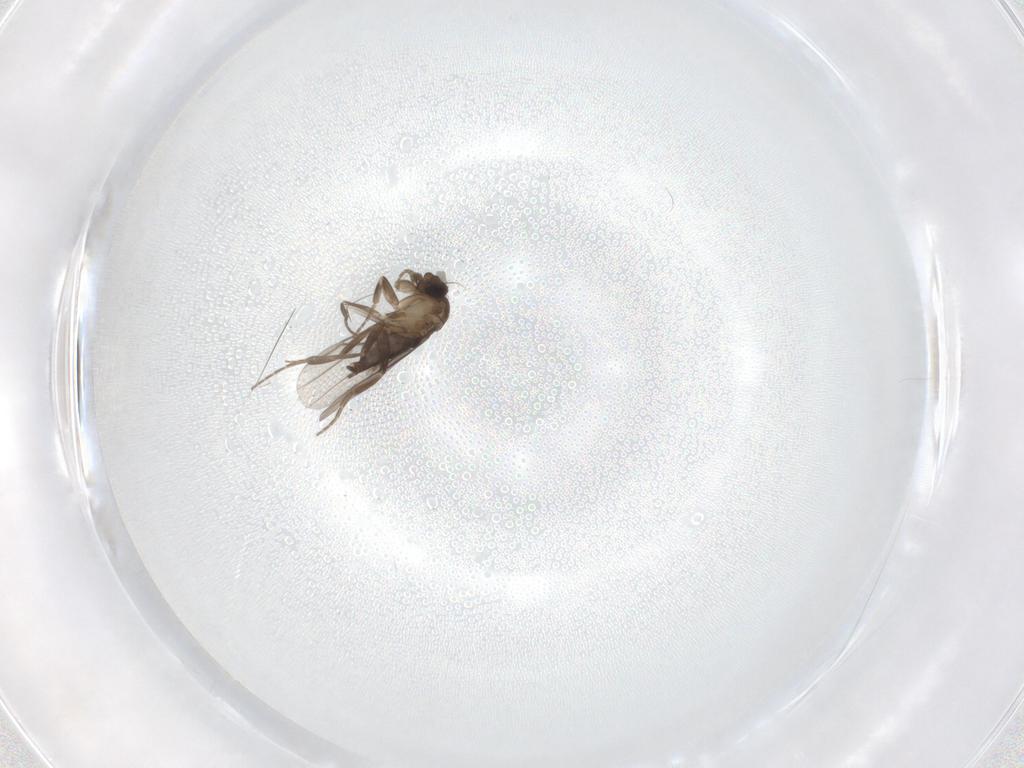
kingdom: Animalia
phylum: Arthropoda
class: Insecta
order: Diptera
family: Phoridae
